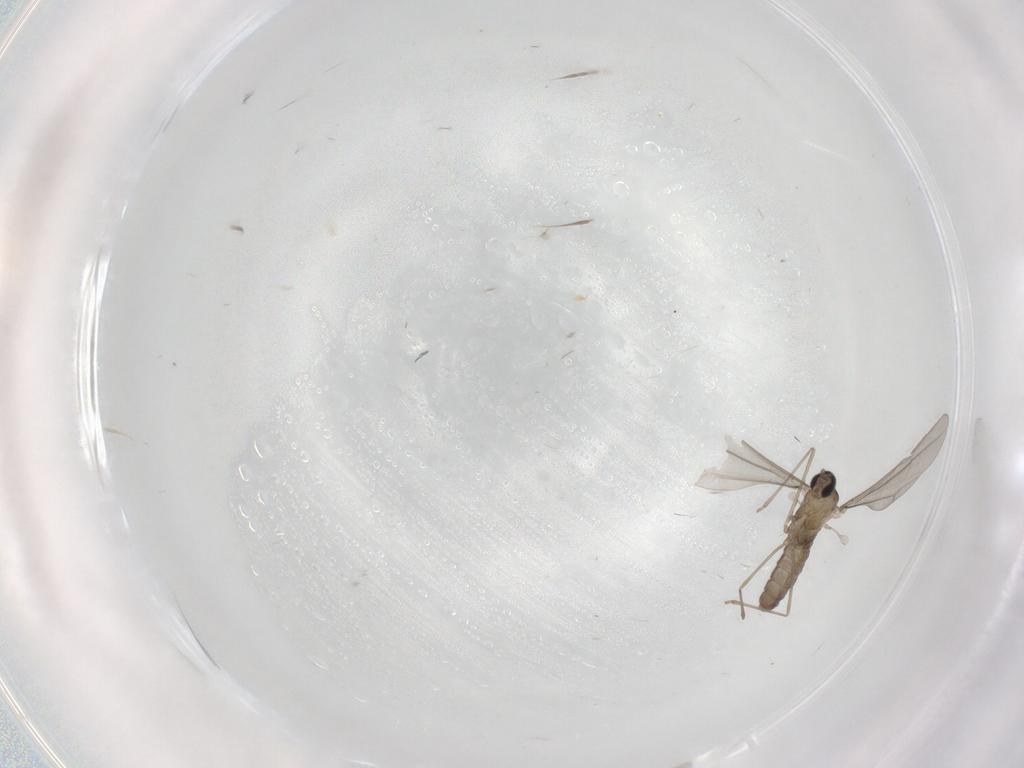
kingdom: Animalia
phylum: Arthropoda
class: Insecta
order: Diptera
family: Cecidomyiidae
